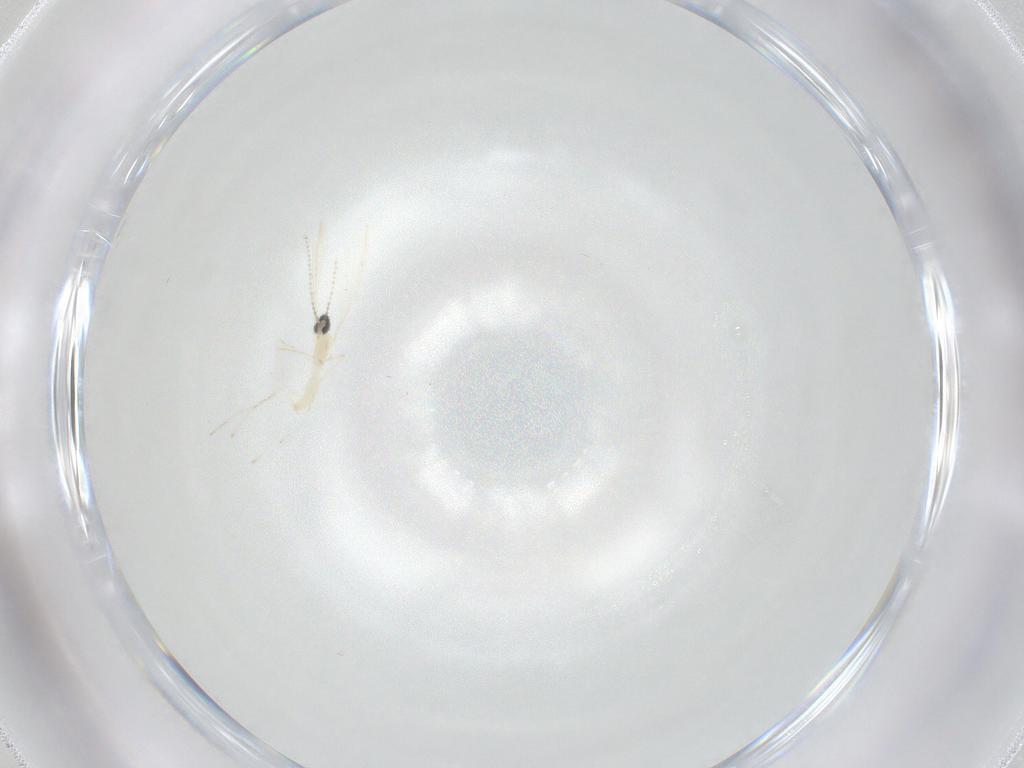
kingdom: Animalia
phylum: Arthropoda
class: Insecta
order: Diptera
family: Cecidomyiidae
